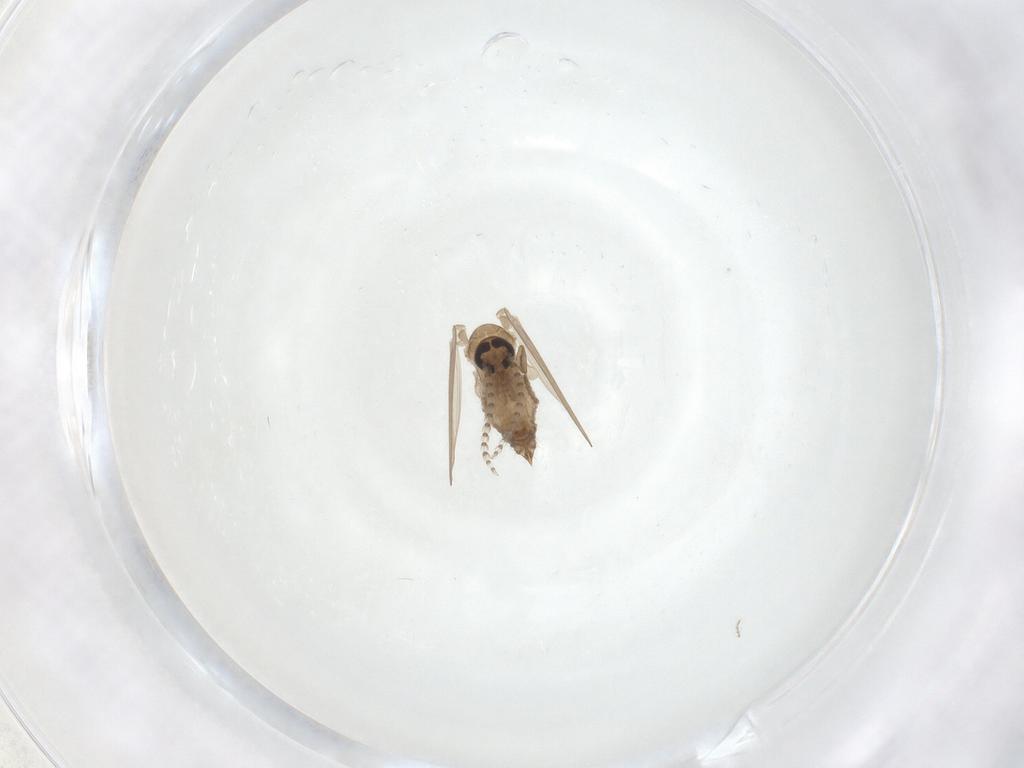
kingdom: Animalia
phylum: Arthropoda
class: Insecta
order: Diptera
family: Psychodidae
